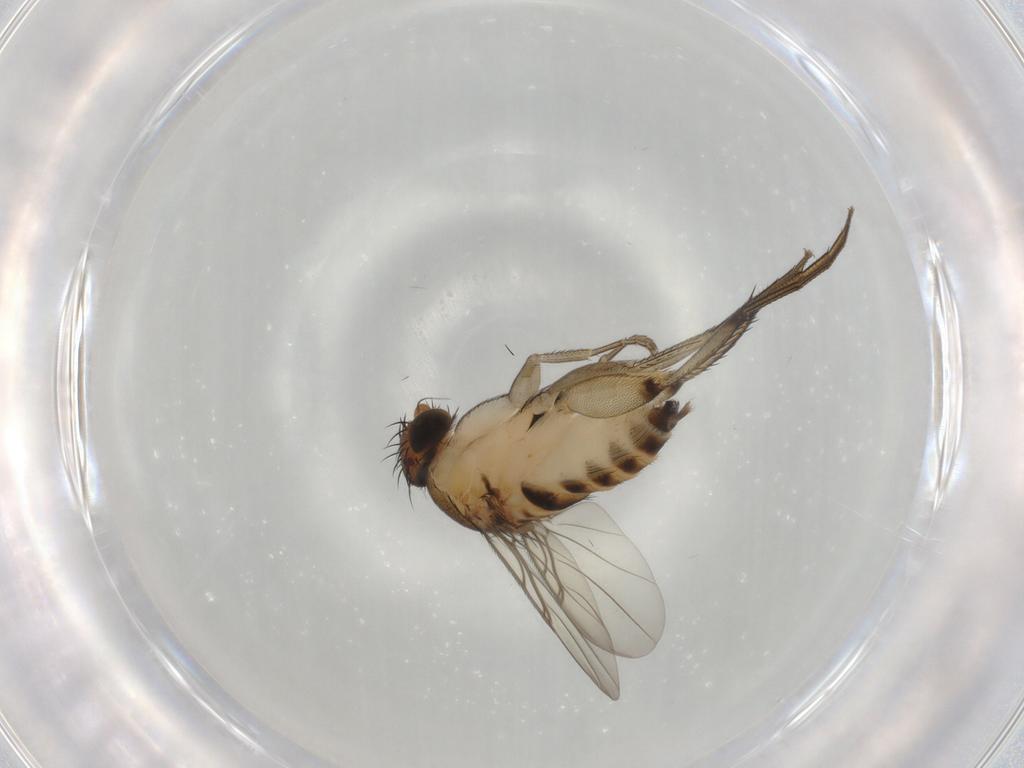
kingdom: Animalia
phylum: Arthropoda
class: Insecta
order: Diptera
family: Phoridae
